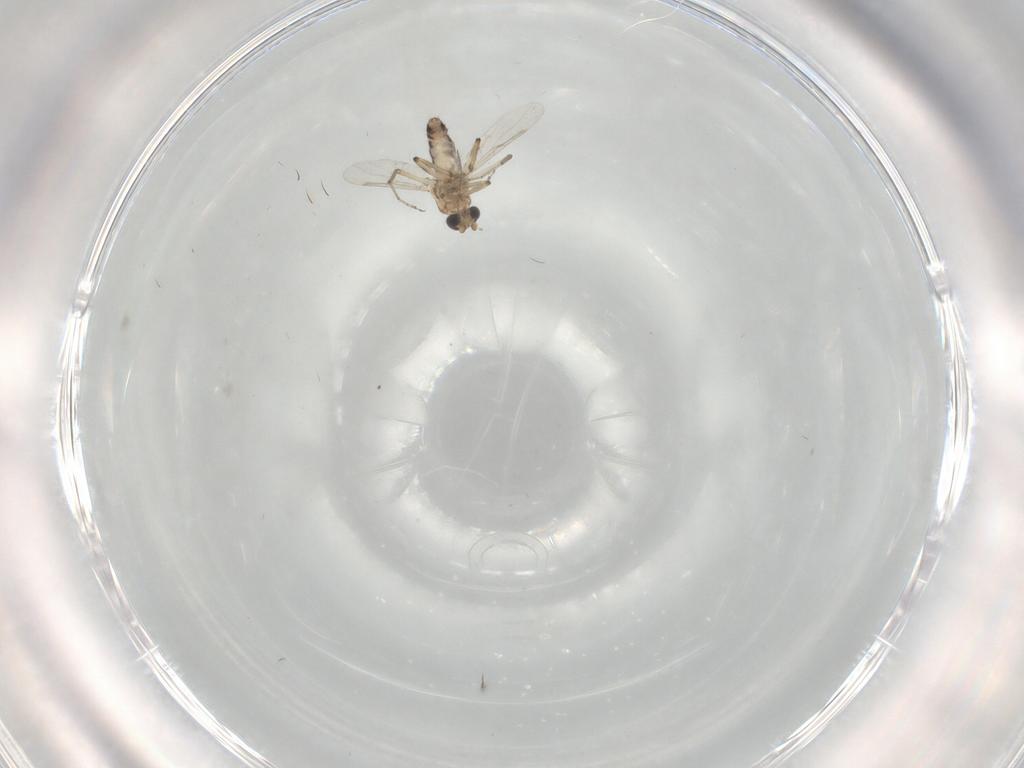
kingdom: Animalia
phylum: Arthropoda
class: Insecta
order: Diptera
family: Ceratopogonidae
